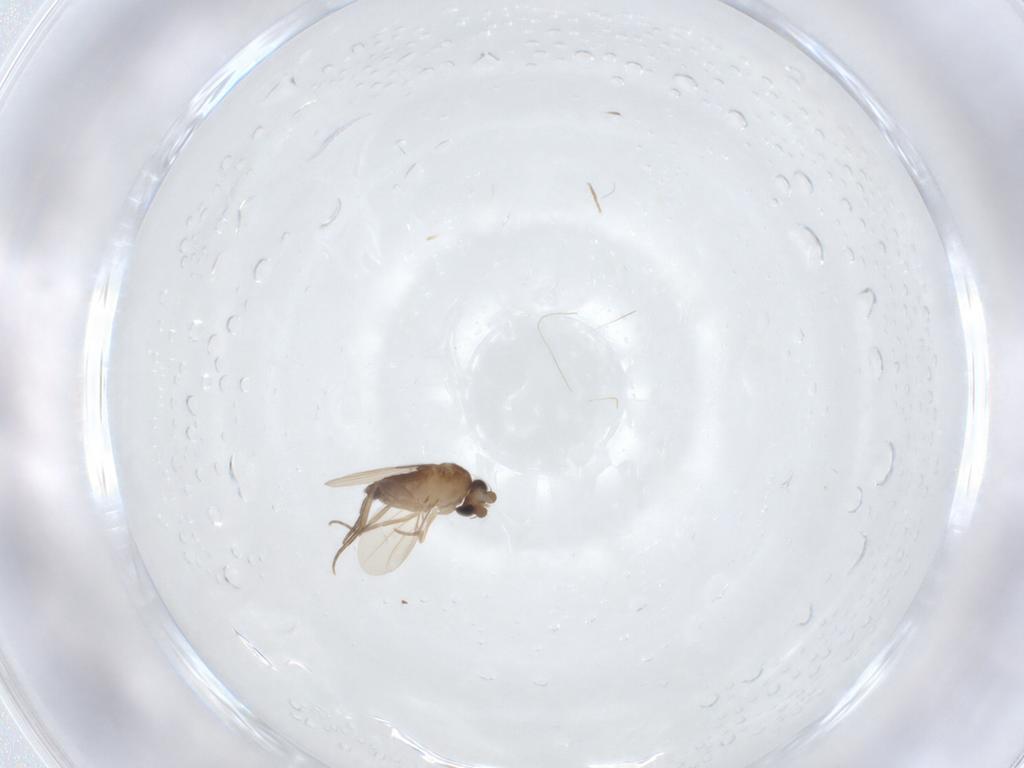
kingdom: Animalia
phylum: Arthropoda
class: Insecta
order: Diptera
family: Phoridae
